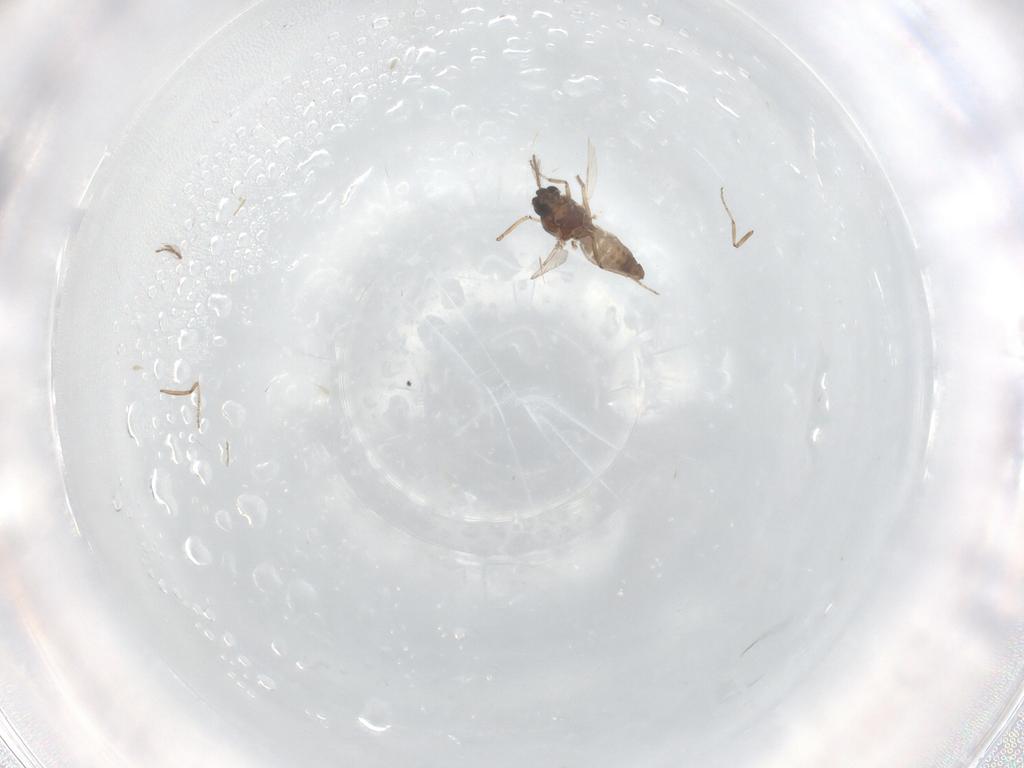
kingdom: Animalia
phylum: Arthropoda
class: Insecta
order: Diptera
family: Ceratopogonidae
